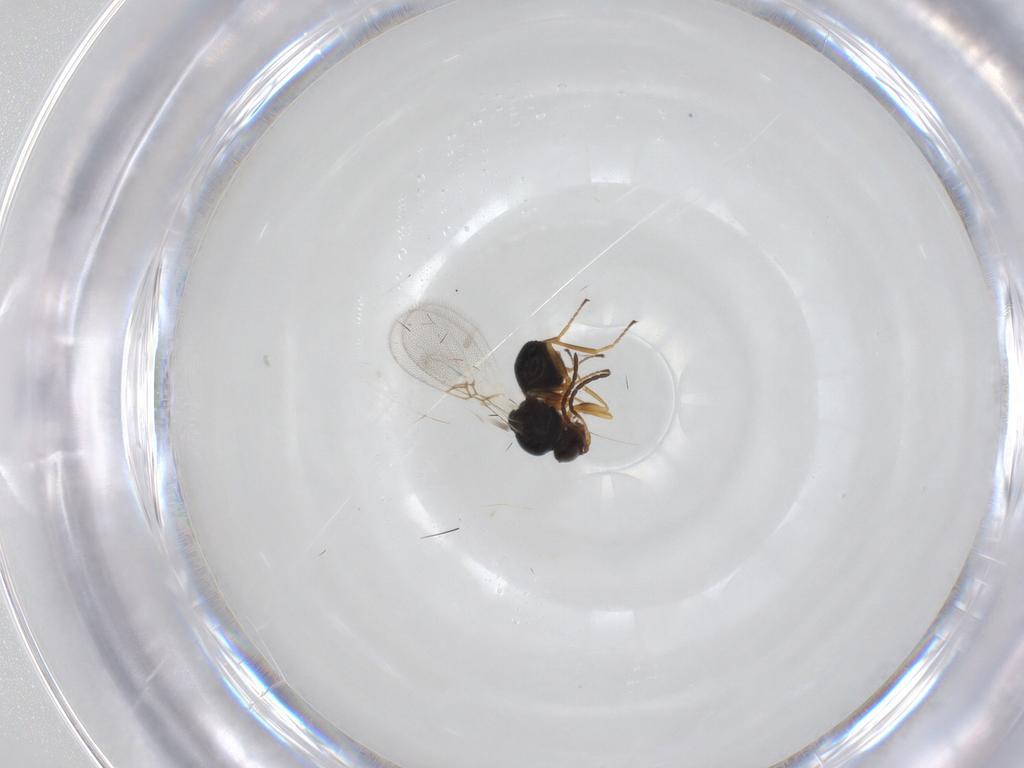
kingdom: Animalia
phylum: Arthropoda
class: Insecta
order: Hymenoptera
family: Figitidae
